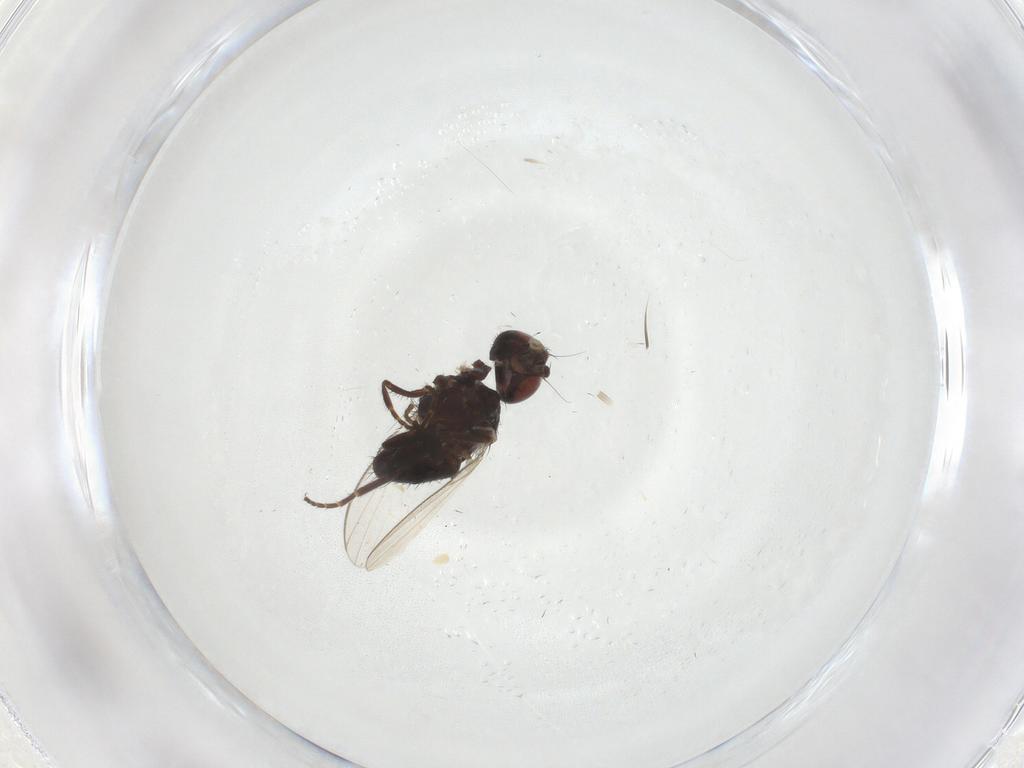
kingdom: Animalia
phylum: Arthropoda
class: Insecta
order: Diptera
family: Milichiidae
